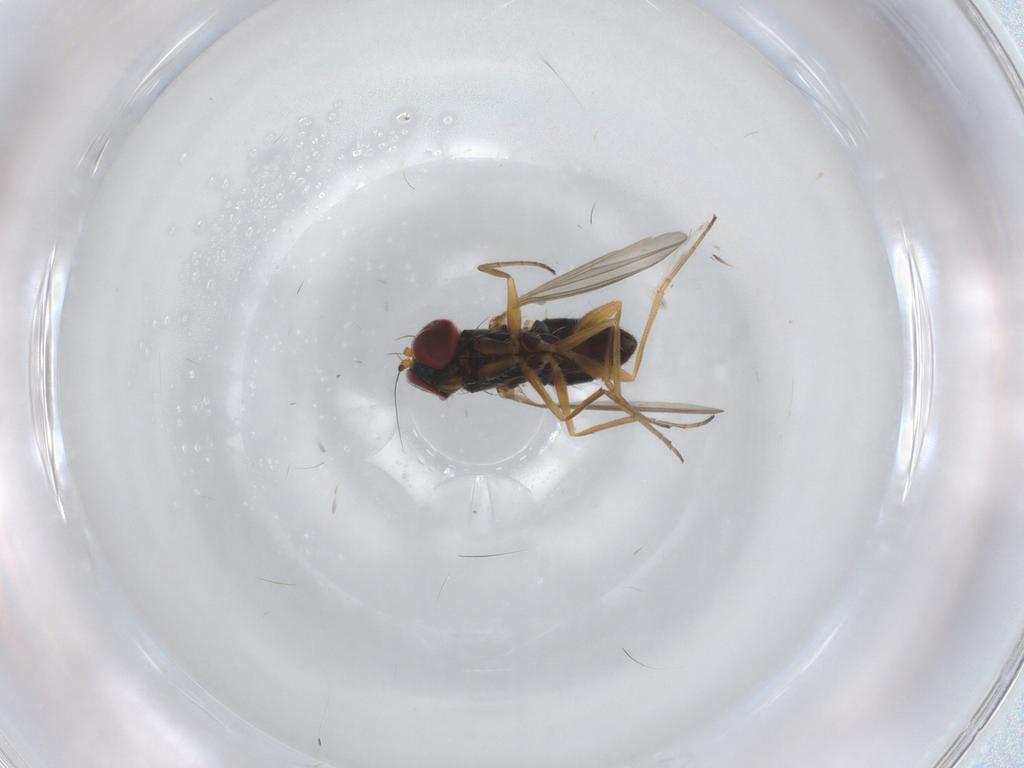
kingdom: Animalia
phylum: Arthropoda
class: Insecta
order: Diptera
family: Dolichopodidae
